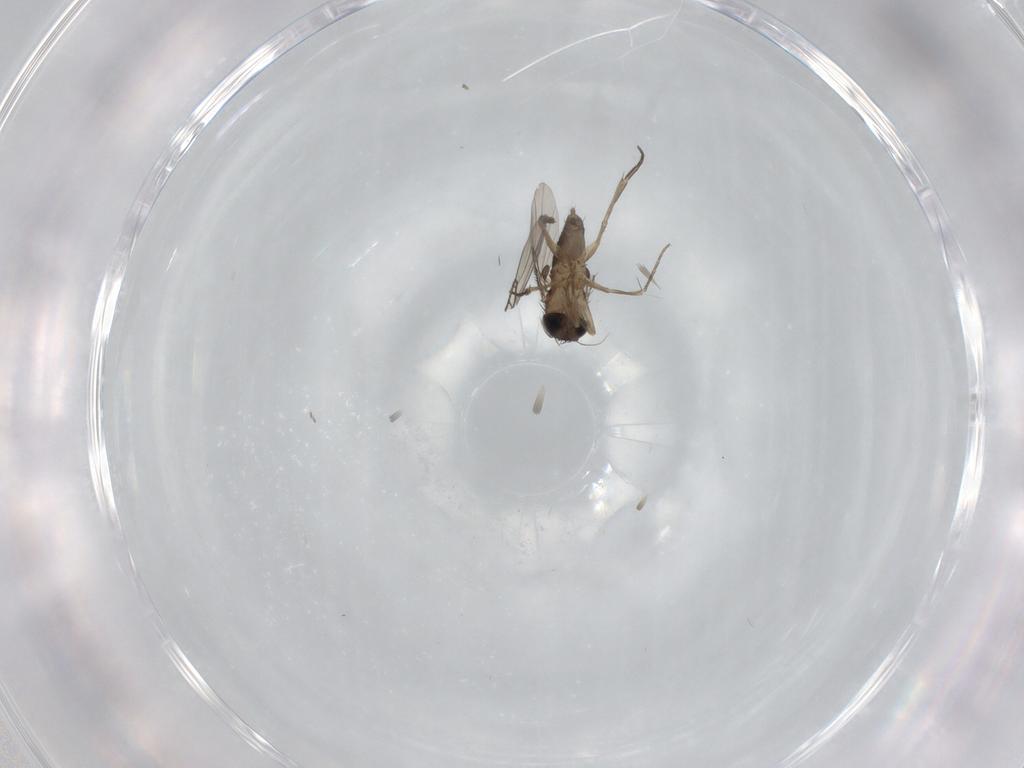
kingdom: Animalia
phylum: Arthropoda
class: Insecta
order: Diptera
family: Phoridae
